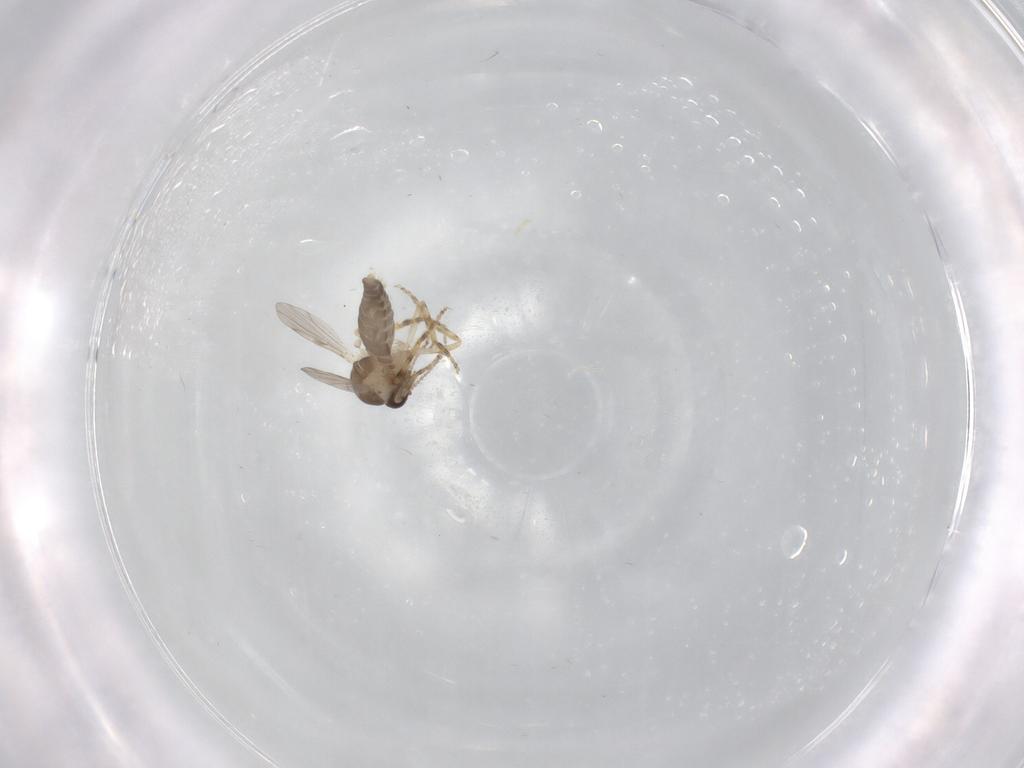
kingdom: Animalia
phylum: Arthropoda
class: Insecta
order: Diptera
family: Ceratopogonidae
